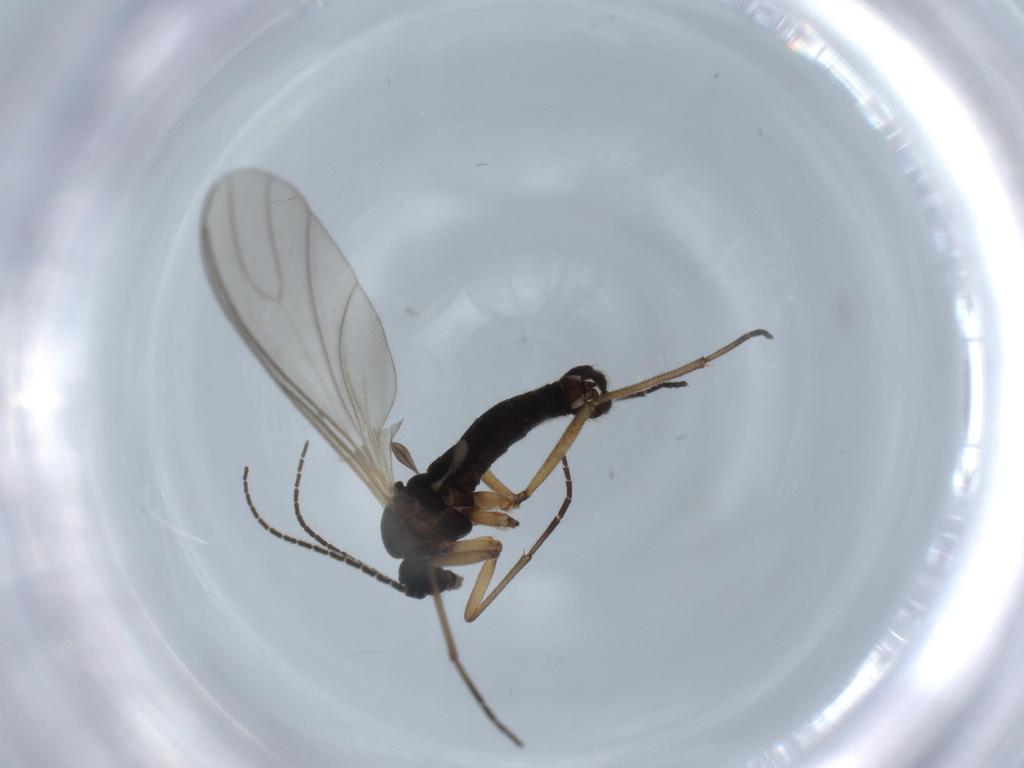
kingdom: Animalia
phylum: Arthropoda
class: Insecta
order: Diptera
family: Sciaridae
